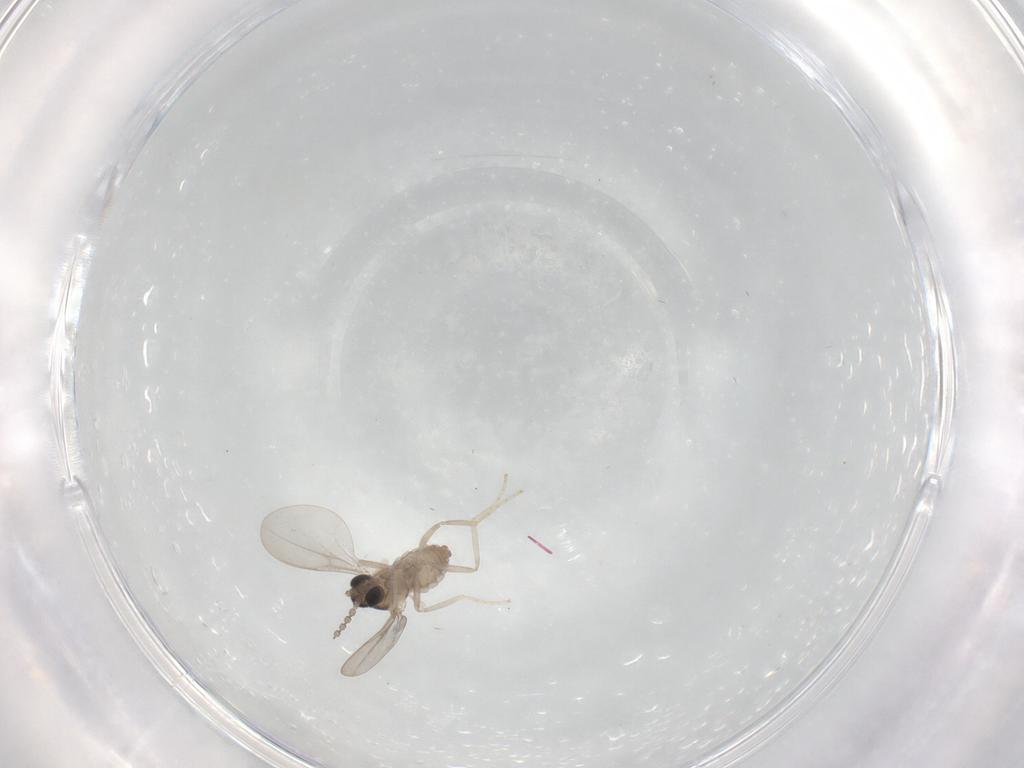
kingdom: Animalia
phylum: Arthropoda
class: Insecta
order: Diptera
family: Cecidomyiidae
